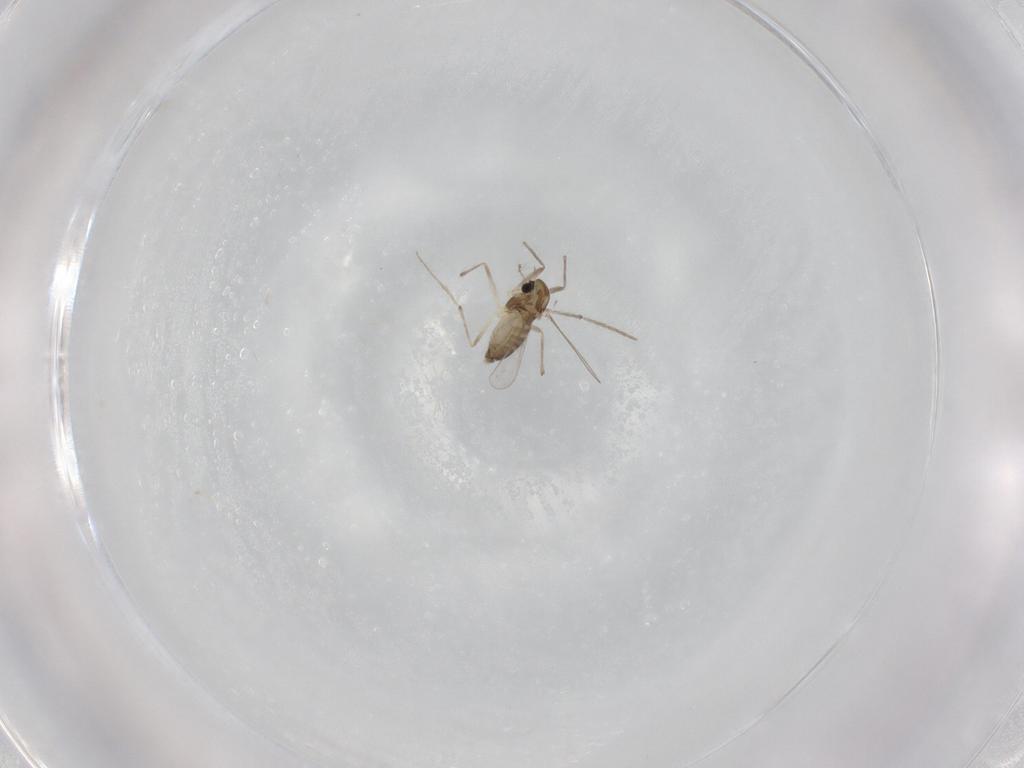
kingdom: Animalia
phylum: Arthropoda
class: Insecta
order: Diptera
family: Chironomidae
